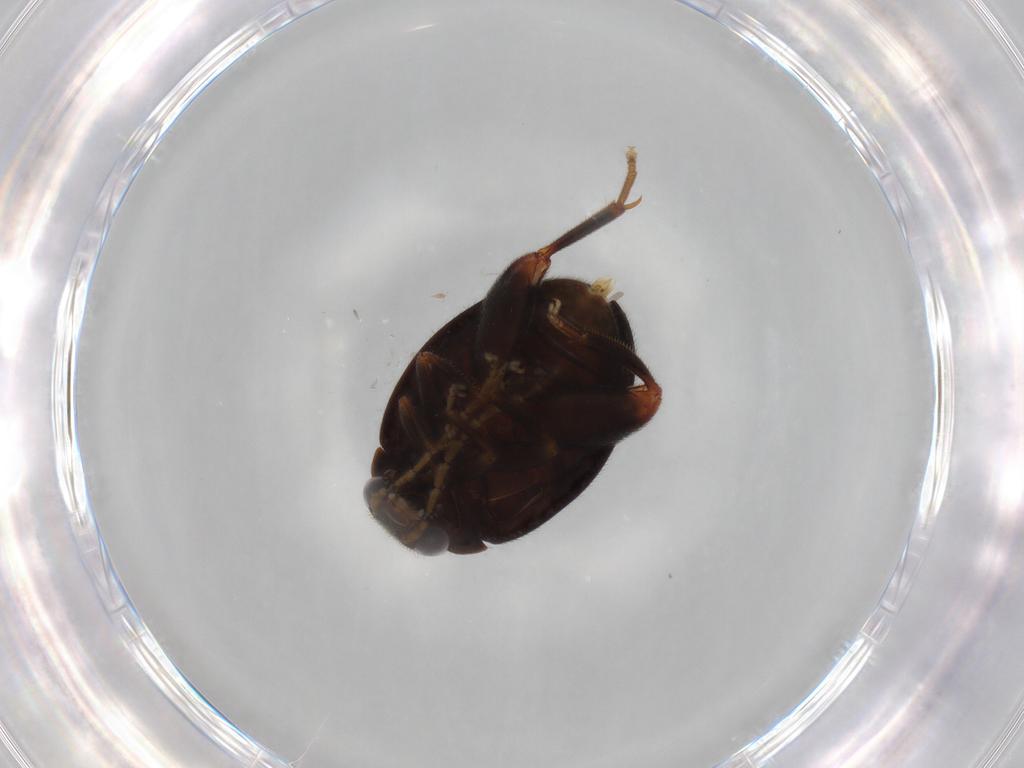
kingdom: Animalia
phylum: Arthropoda
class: Insecta
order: Coleoptera
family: Scirtidae
